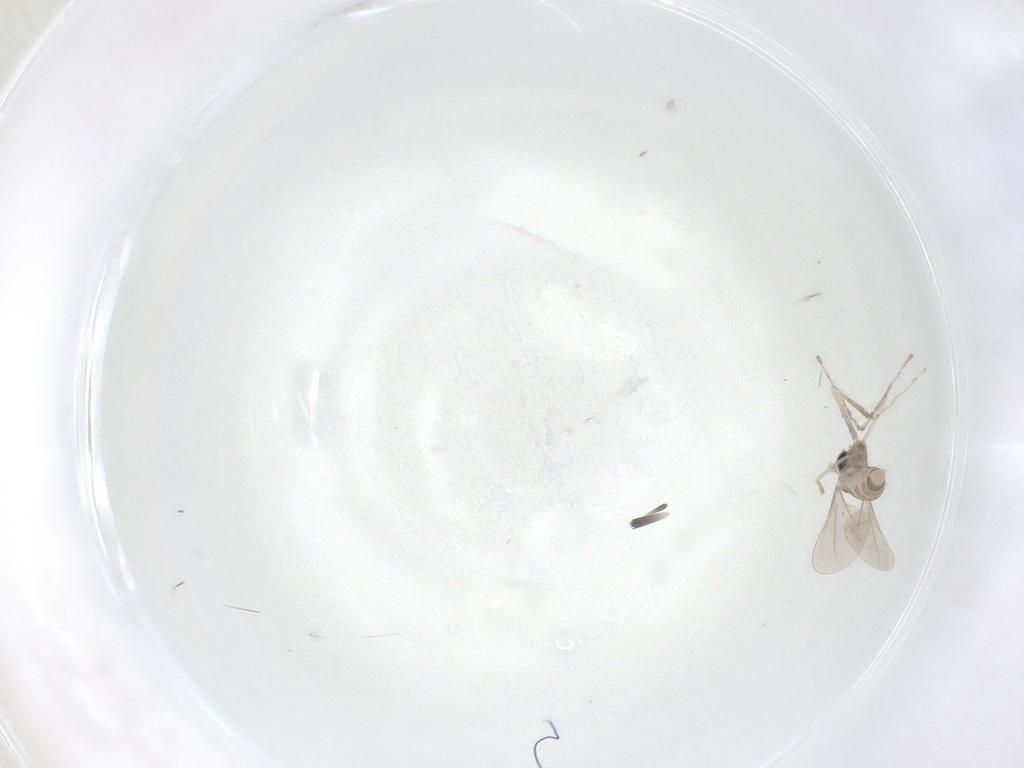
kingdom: Animalia
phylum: Arthropoda
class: Insecta
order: Diptera
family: Cecidomyiidae
